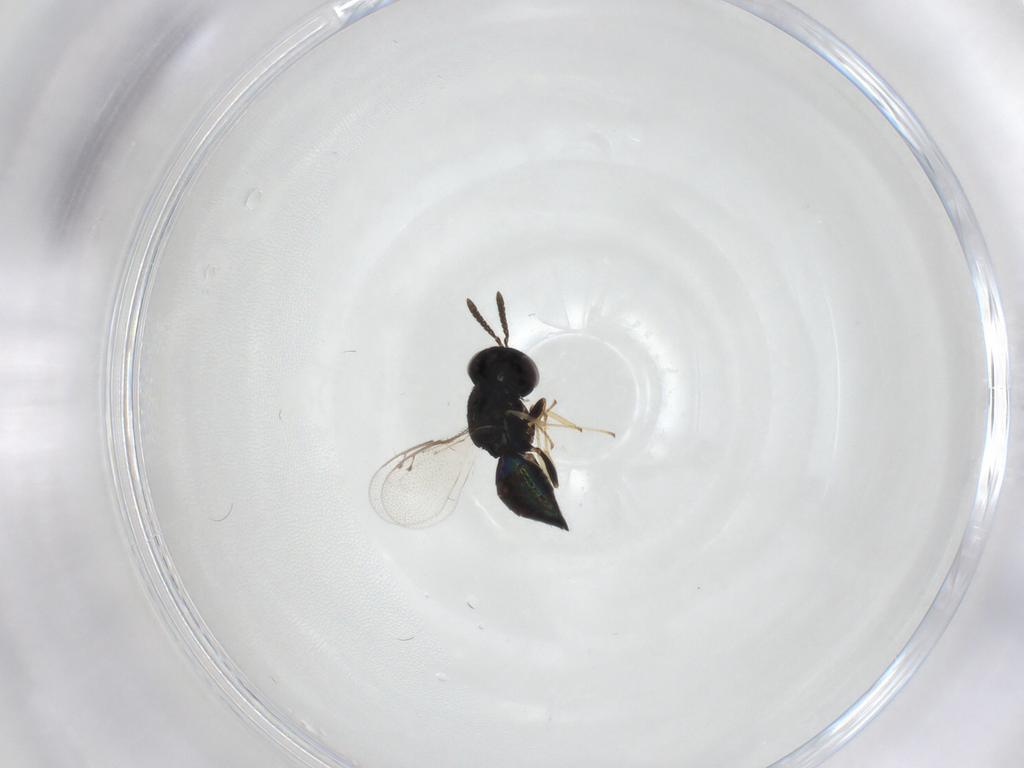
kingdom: Animalia
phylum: Arthropoda
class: Insecta
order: Hymenoptera
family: Pteromalidae
